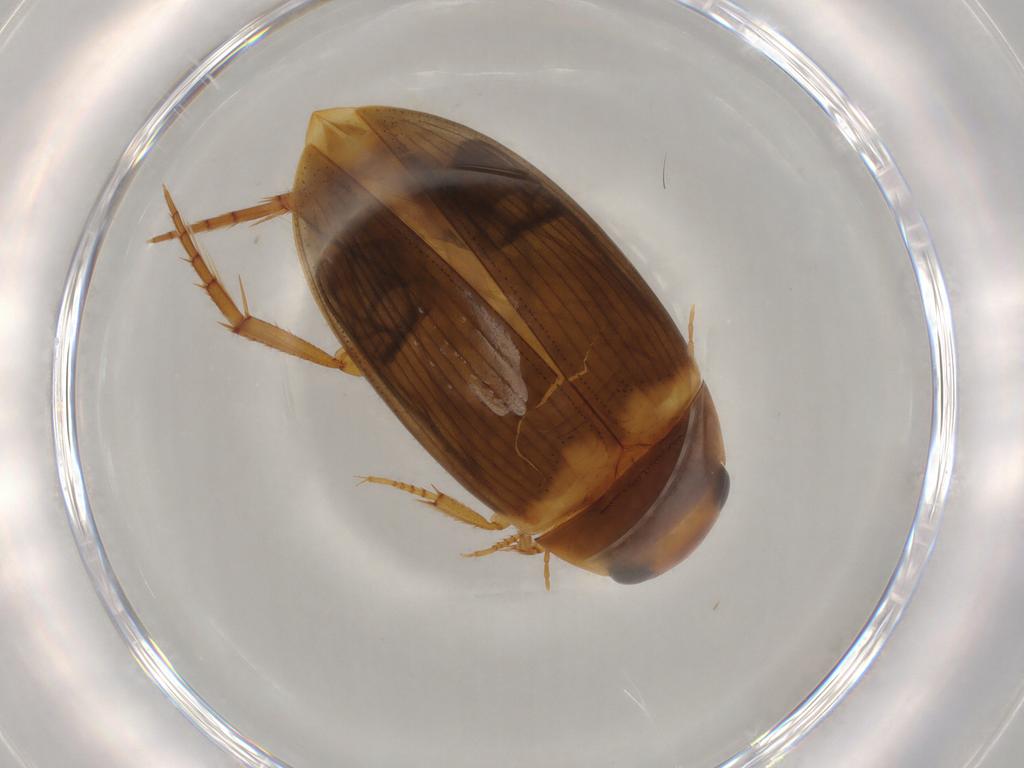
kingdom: Animalia
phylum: Arthropoda
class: Insecta
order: Coleoptera
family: Dytiscidae
